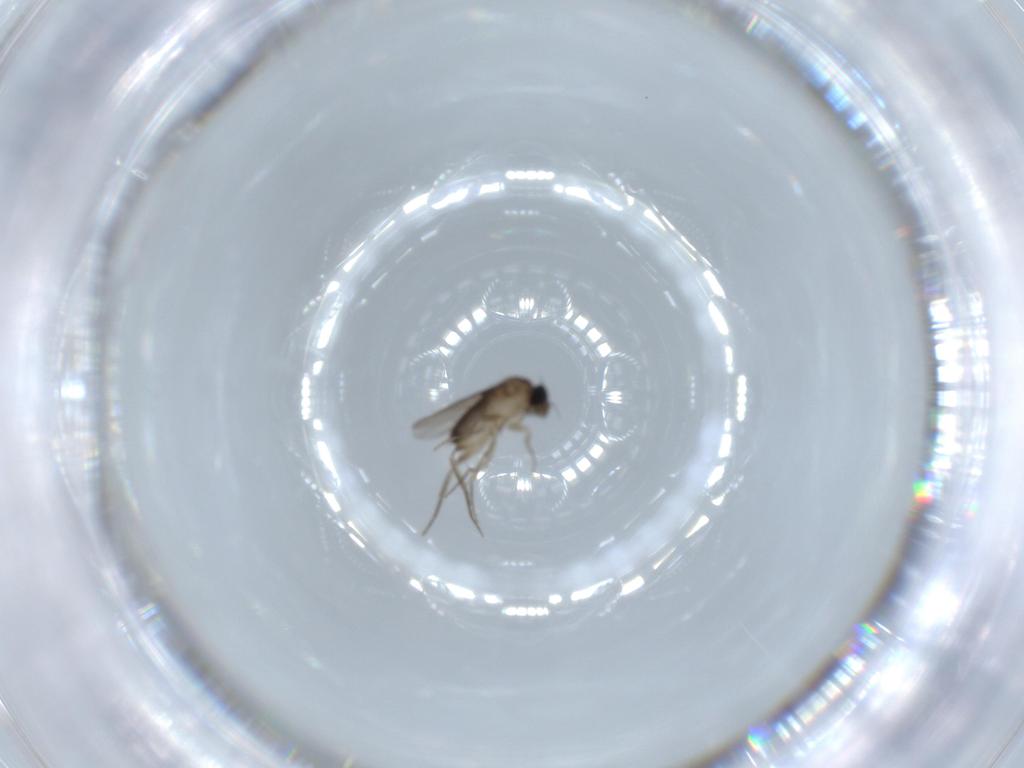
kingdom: Animalia
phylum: Arthropoda
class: Insecta
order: Diptera
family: Phoridae
